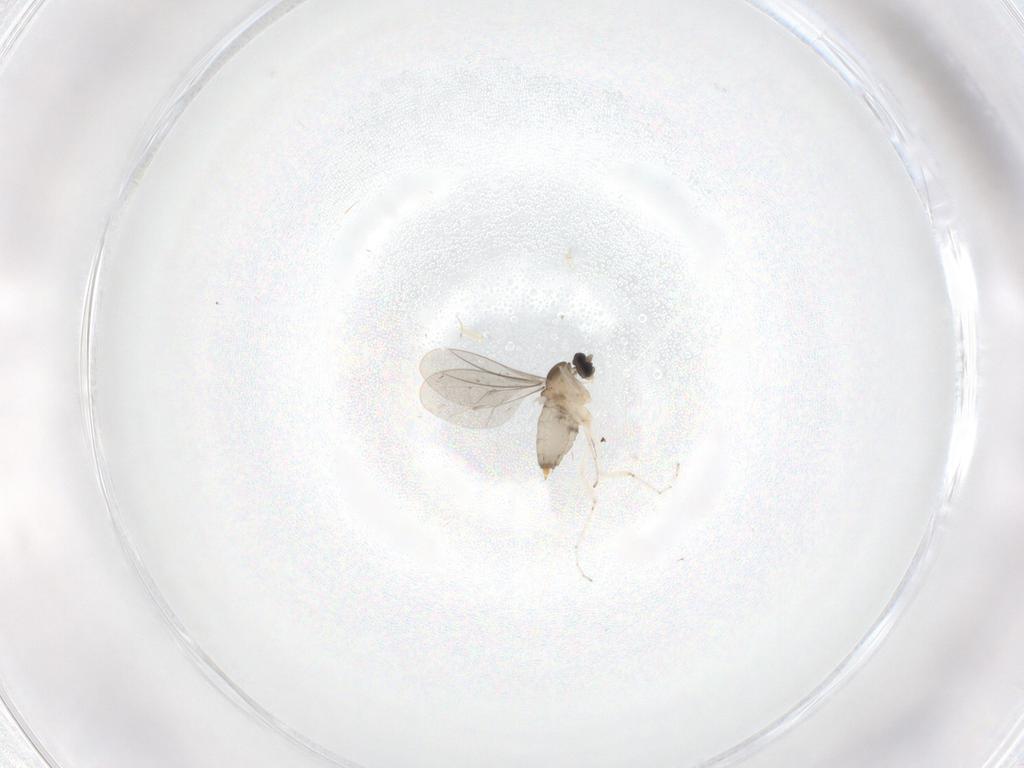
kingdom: Animalia
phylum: Arthropoda
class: Insecta
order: Diptera
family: Cecidomyiidae
